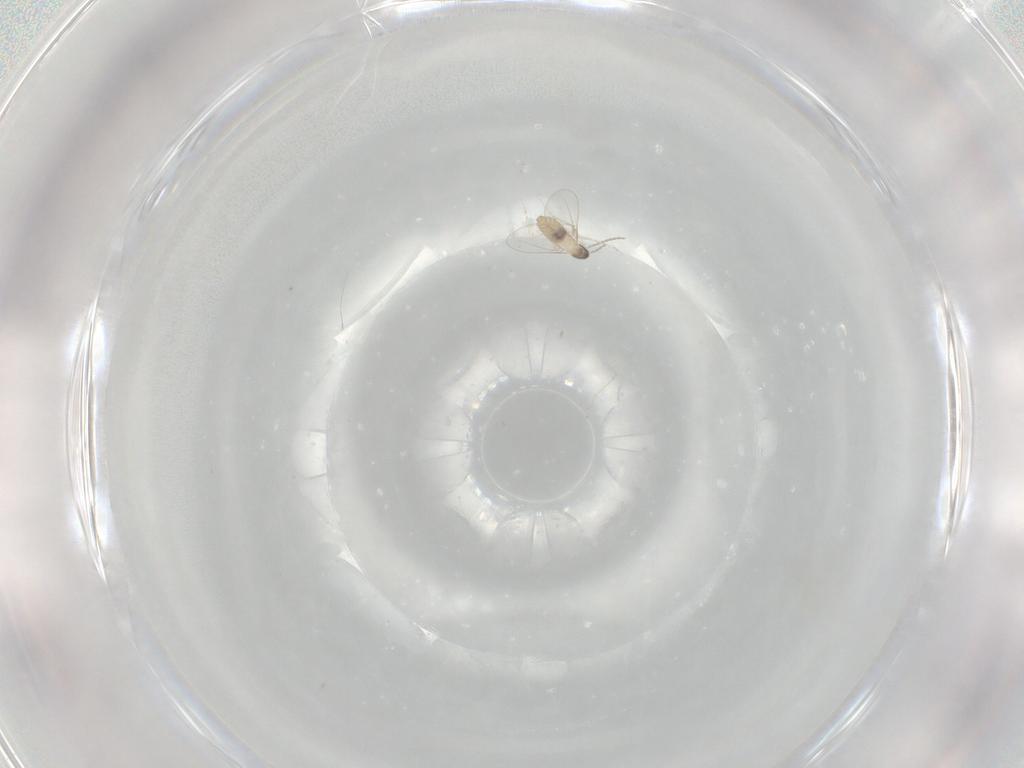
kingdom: Animalia
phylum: Arthropoda
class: Insecta
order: Diptera
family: Cecidomyiidae
